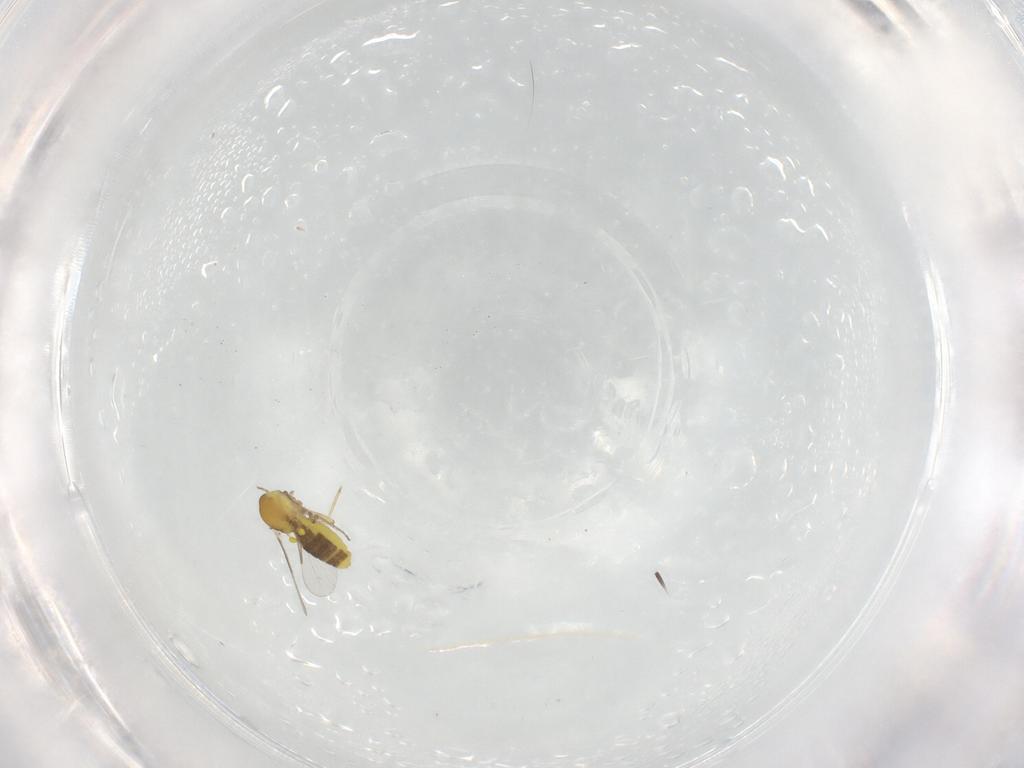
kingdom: Animalia
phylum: Arthropoda
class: Insecta
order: Diptera
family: Psychodidae
